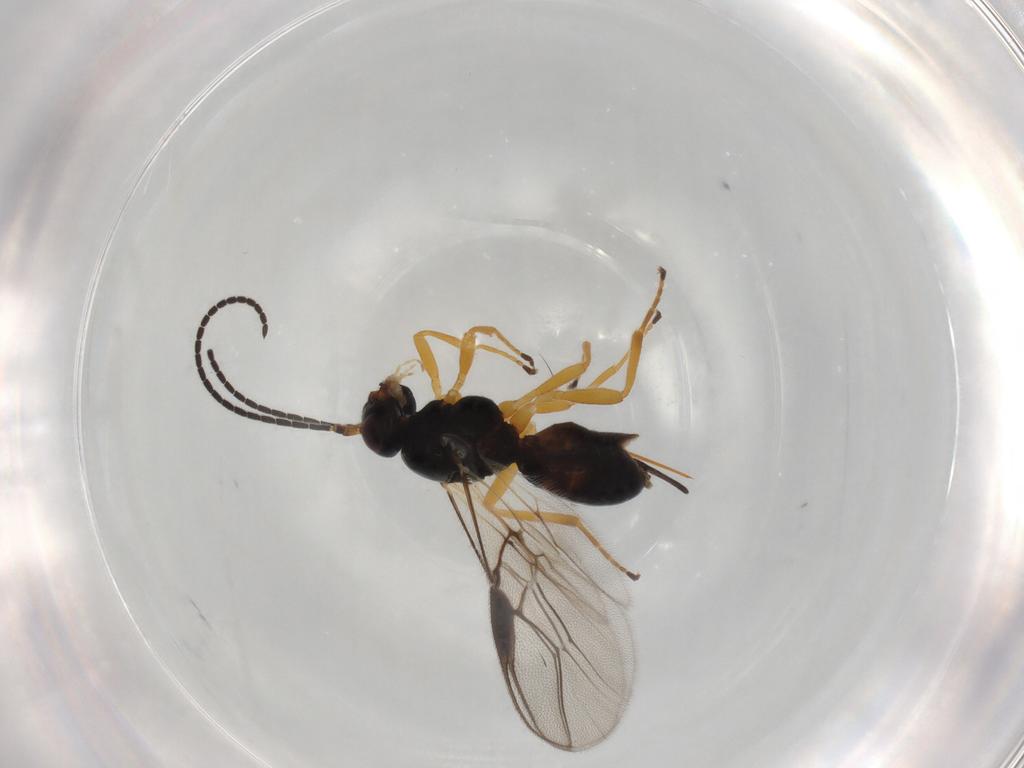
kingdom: Animalia
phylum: Arthropoda
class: Insecta
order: Hymenoptera
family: Braconidae
